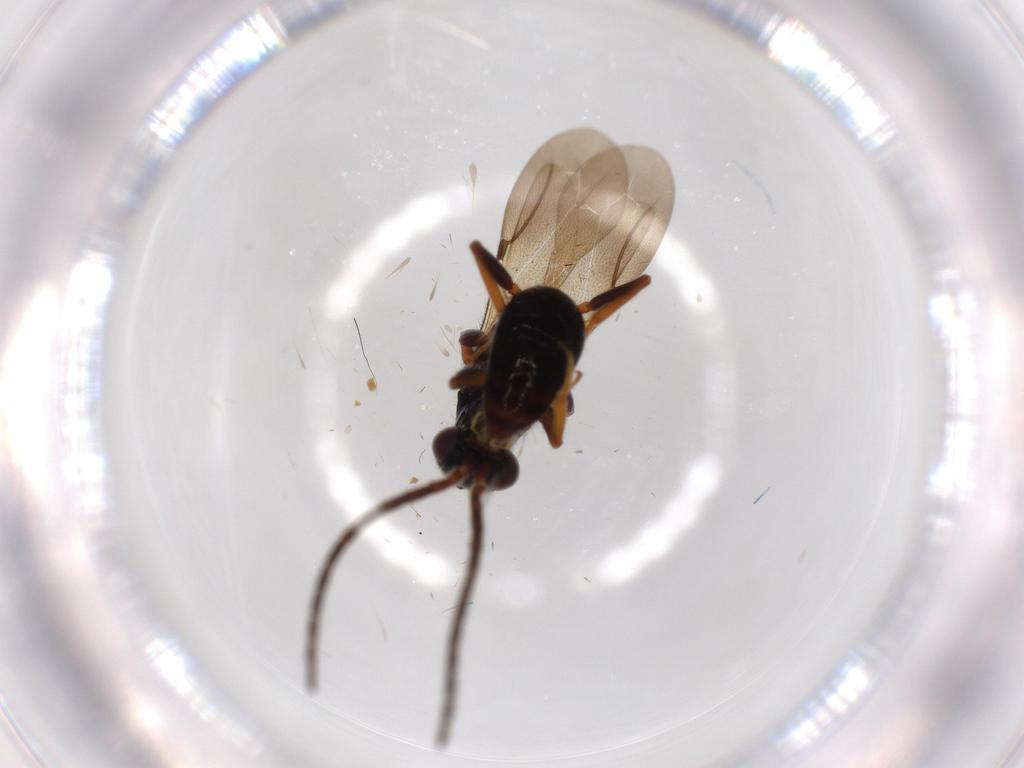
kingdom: Animalia
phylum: Arthropoda
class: Insecta
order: Hymenoptera
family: Bethylidae
